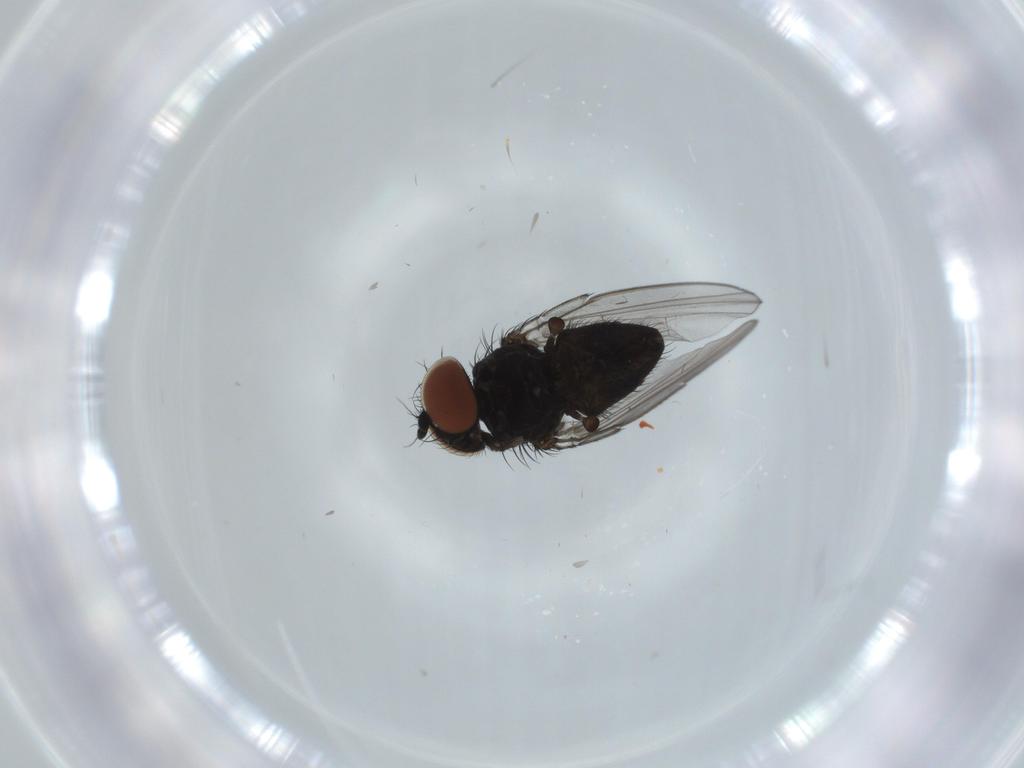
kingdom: Animalia
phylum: Arthropoda
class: Insecta
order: Diptera
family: Milichiidae
